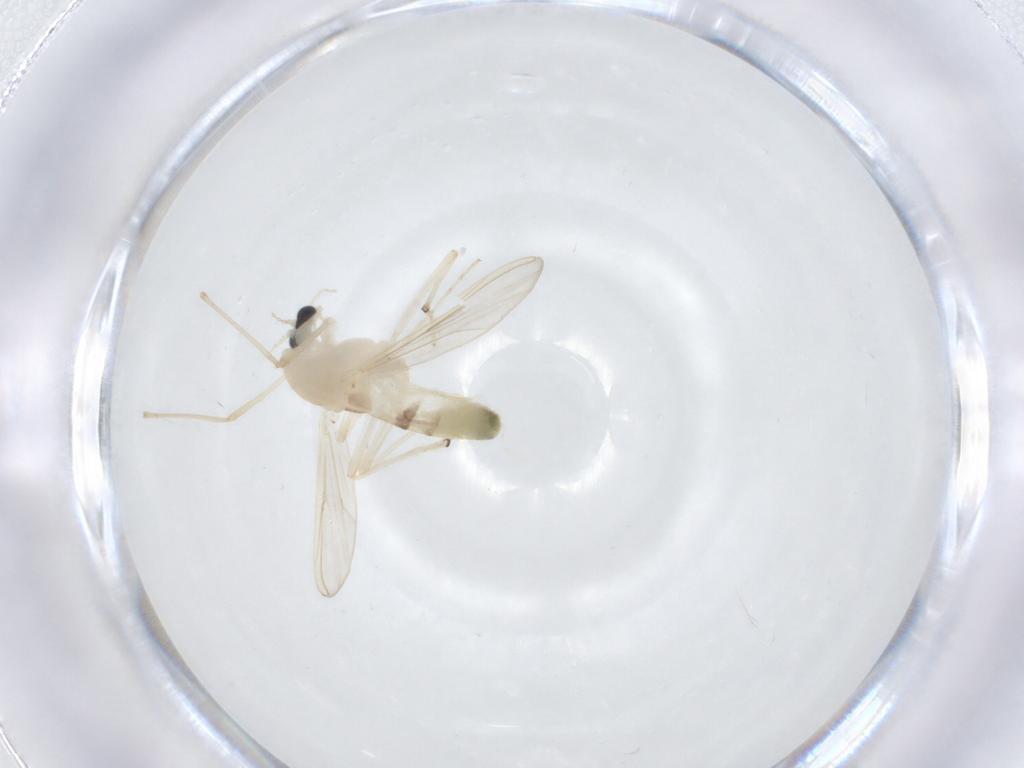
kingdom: Animalia
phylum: Arthropoda
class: Insecta
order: Diptera
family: Chironomidae
